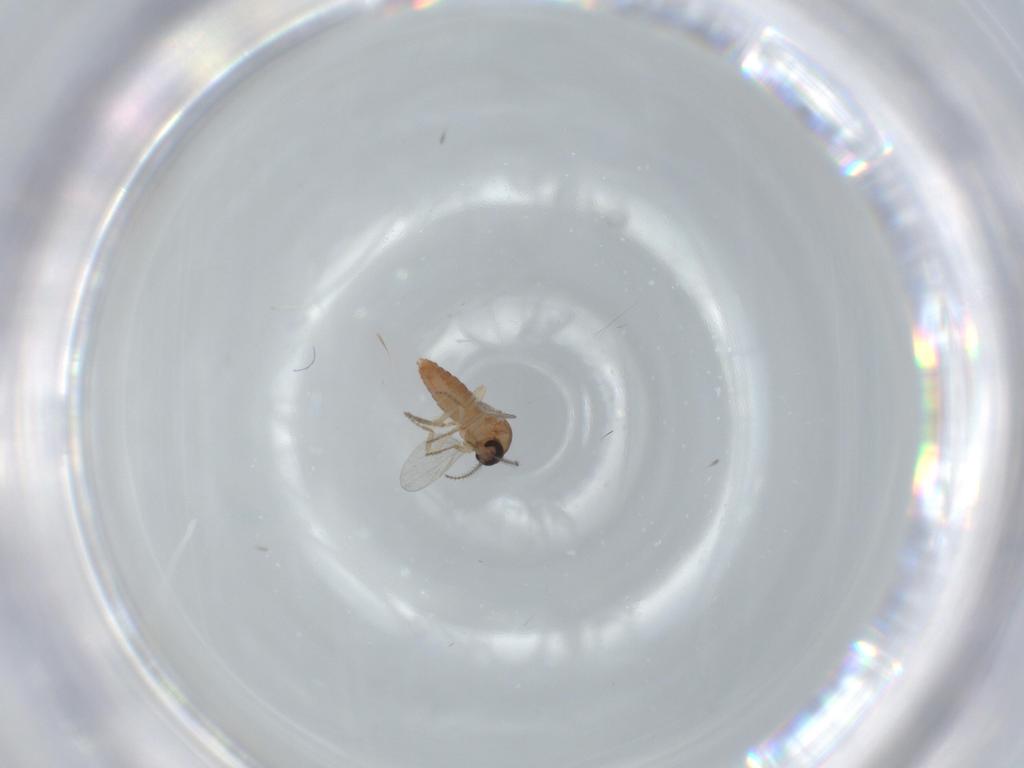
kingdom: Animalia
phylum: Arthropoda
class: Insecta
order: Diptera
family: Ceratopogonidae
